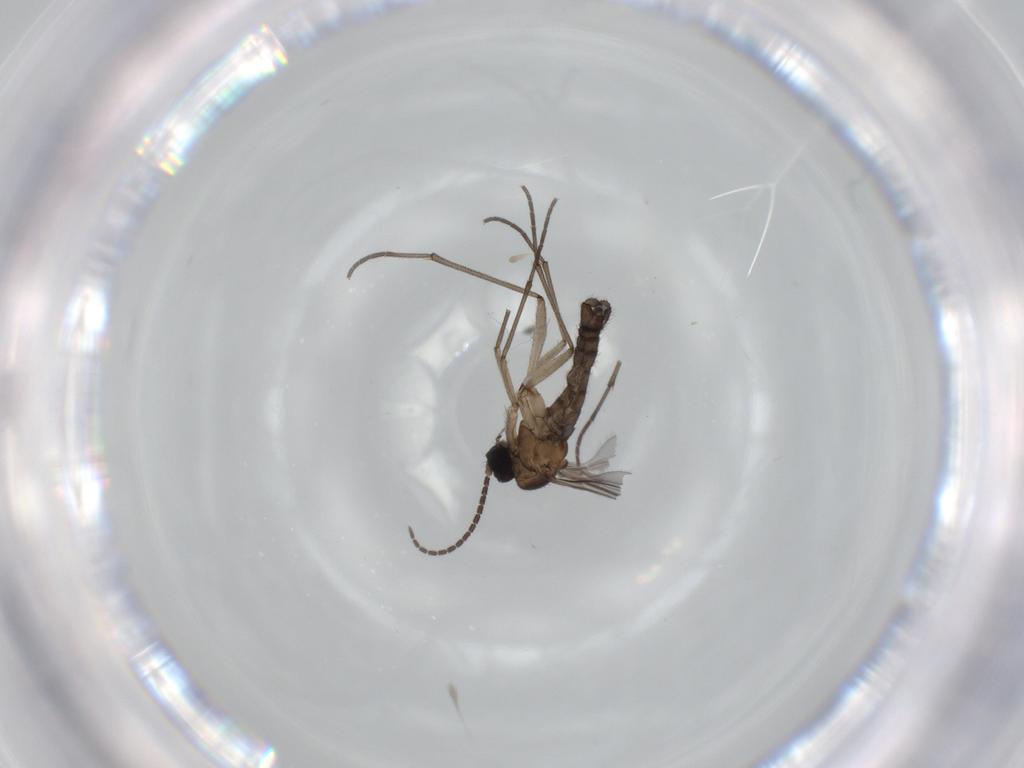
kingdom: Animalia
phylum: Arthropoda
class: Insecta
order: Diptera
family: Sciaridae
